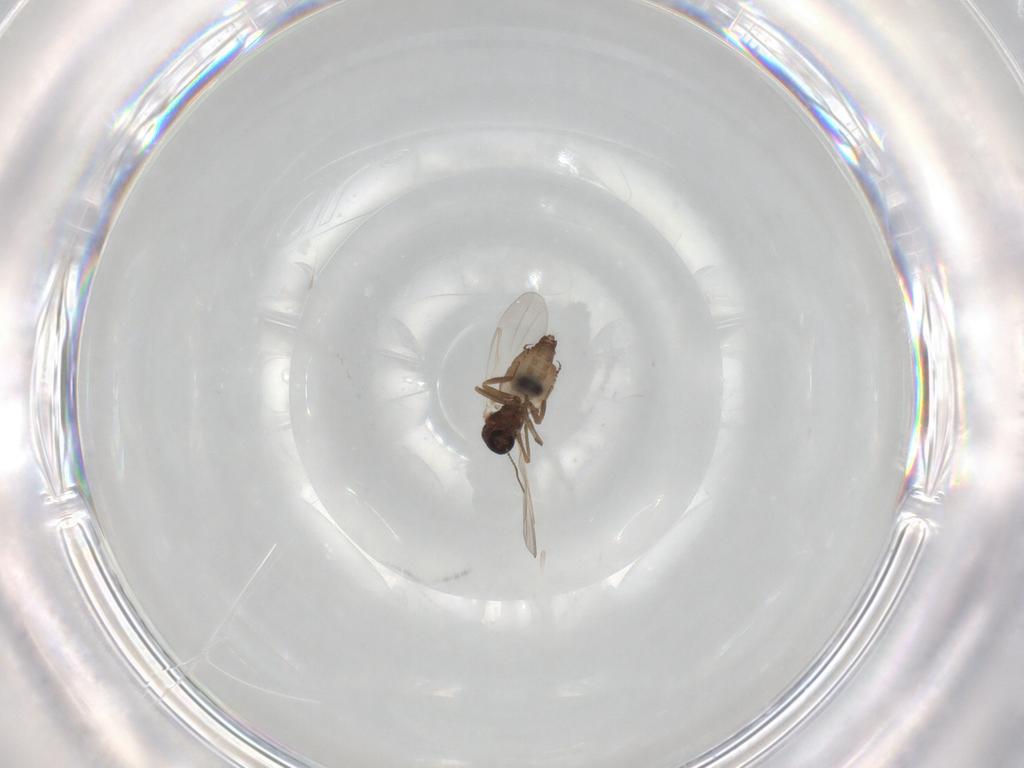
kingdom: Animalia
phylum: Arthropoda
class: Insecta
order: Diptera
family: Ceratopogonidae
